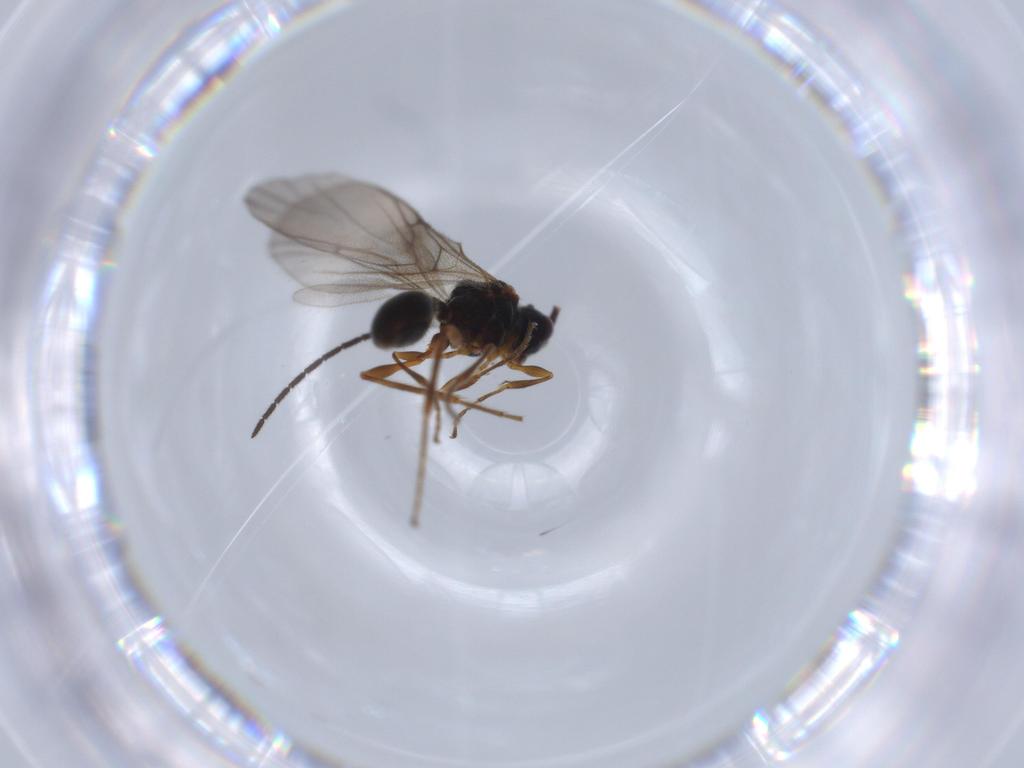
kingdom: Animalia
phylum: Arthropoda
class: Insecta
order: Hymenoptera
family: Diapriidae
